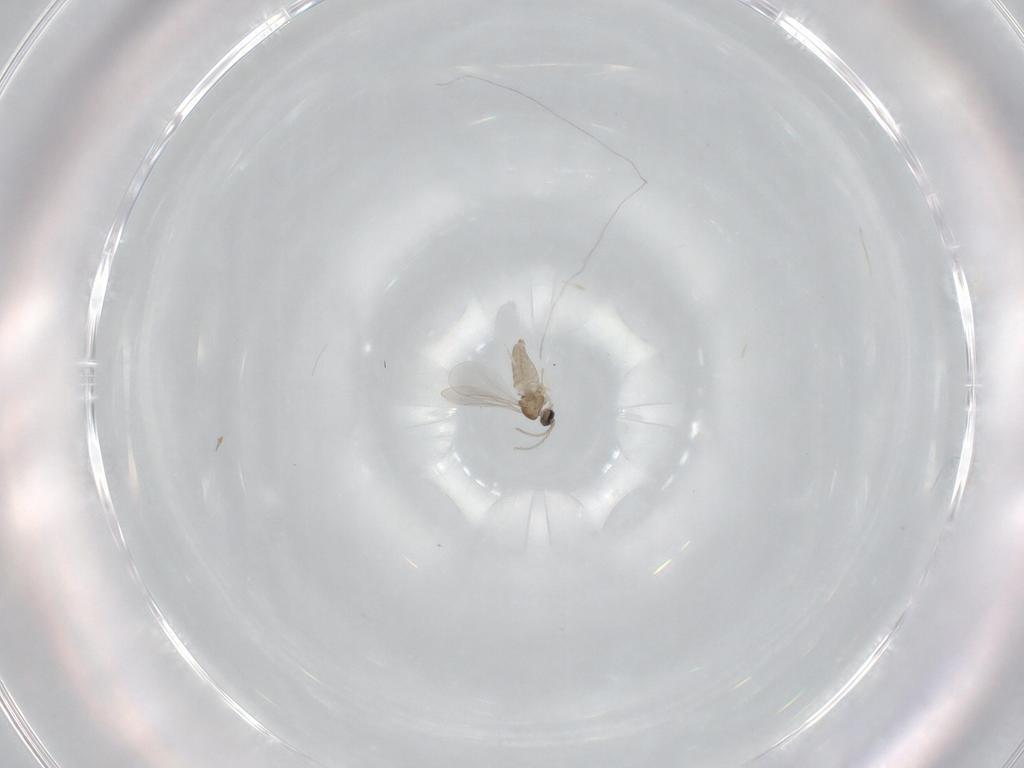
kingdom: Animalia
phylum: Arthropoda
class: Insecta
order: Diptera
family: Cecidomyiidae
